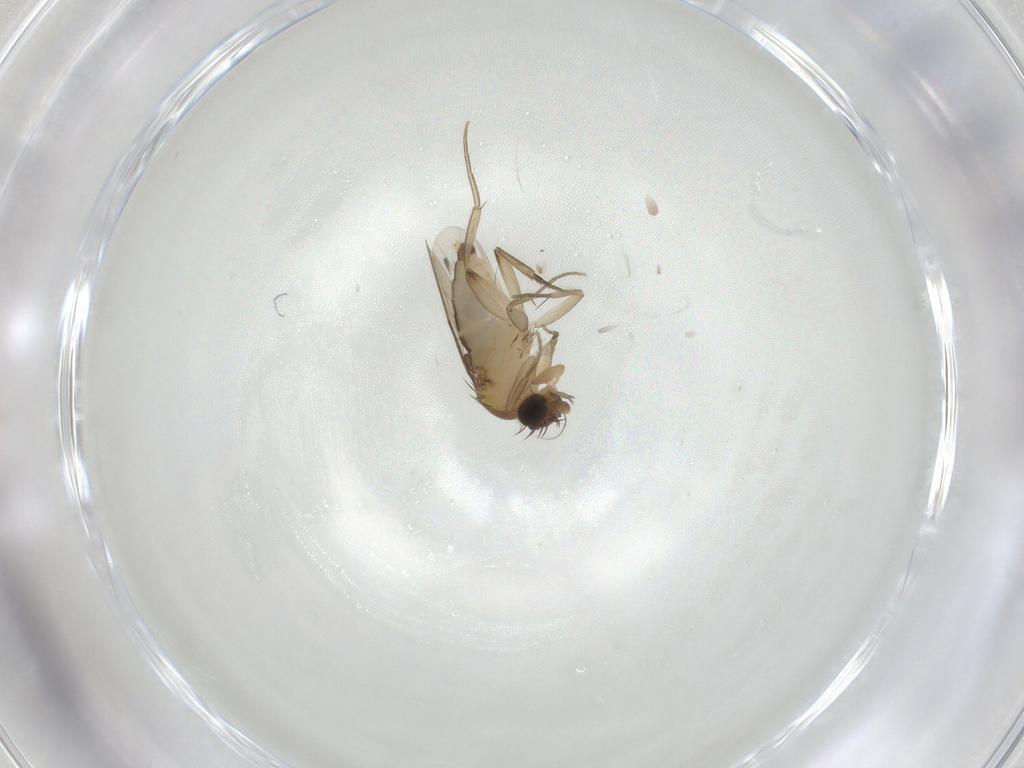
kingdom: Animalia
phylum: Arthropoda
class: Insecta
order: Diptera
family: Phoridae
